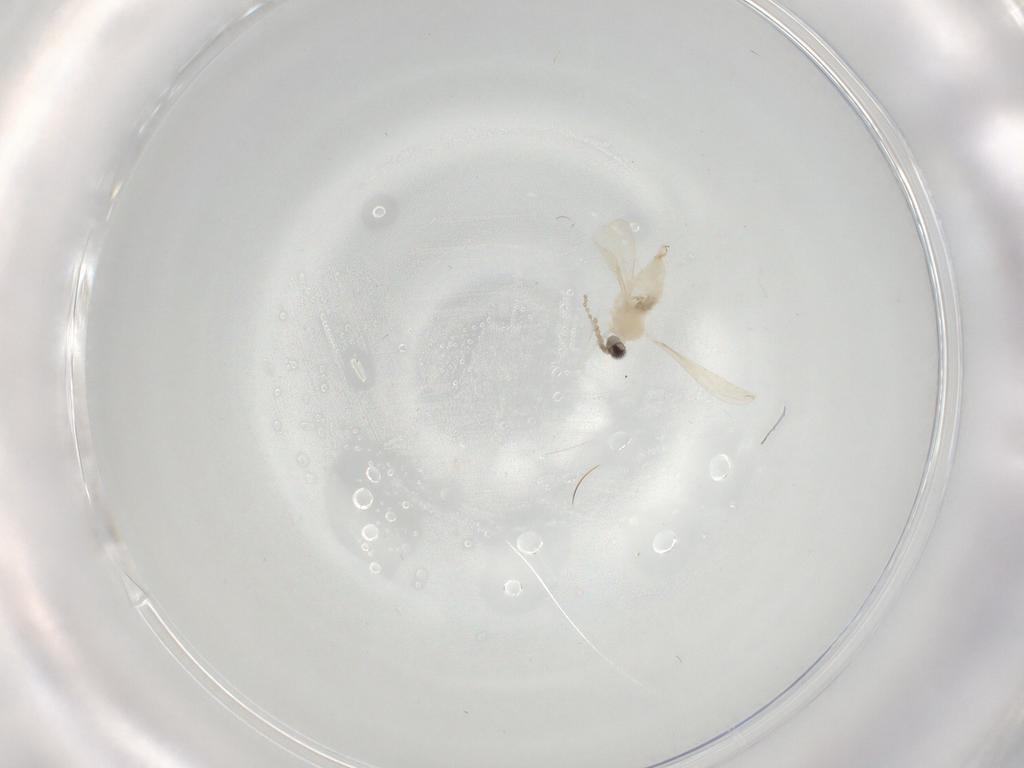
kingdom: Animalia
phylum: Arthropoda
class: Insecta
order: Diptera
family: Cecidomyiidae
